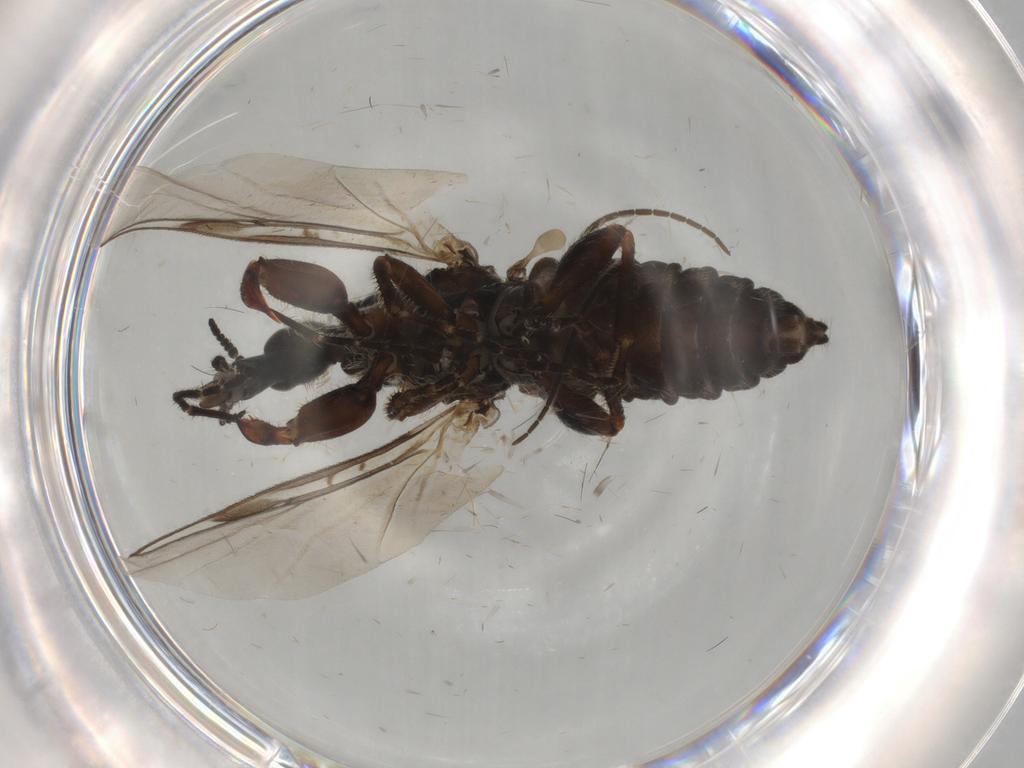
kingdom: Animalia
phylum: Arthropoda
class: Insecta
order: Diptera
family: Bibionidae
